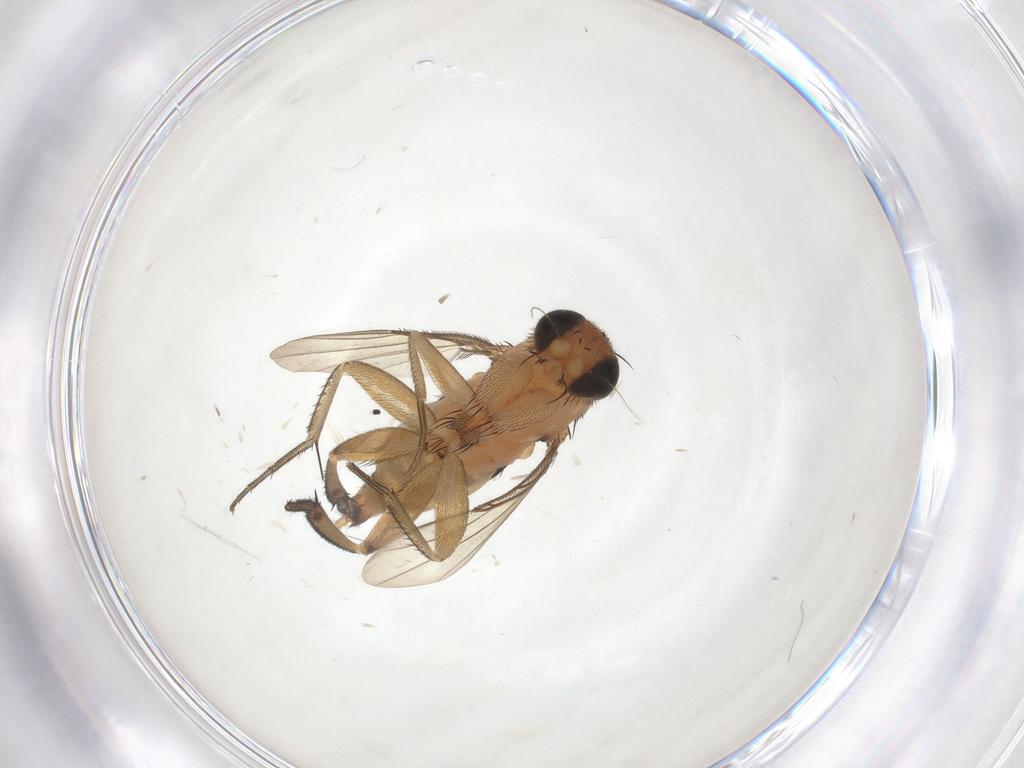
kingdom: Animalia
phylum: Arthropoda
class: Insecta
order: Diptera
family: Phoridae
